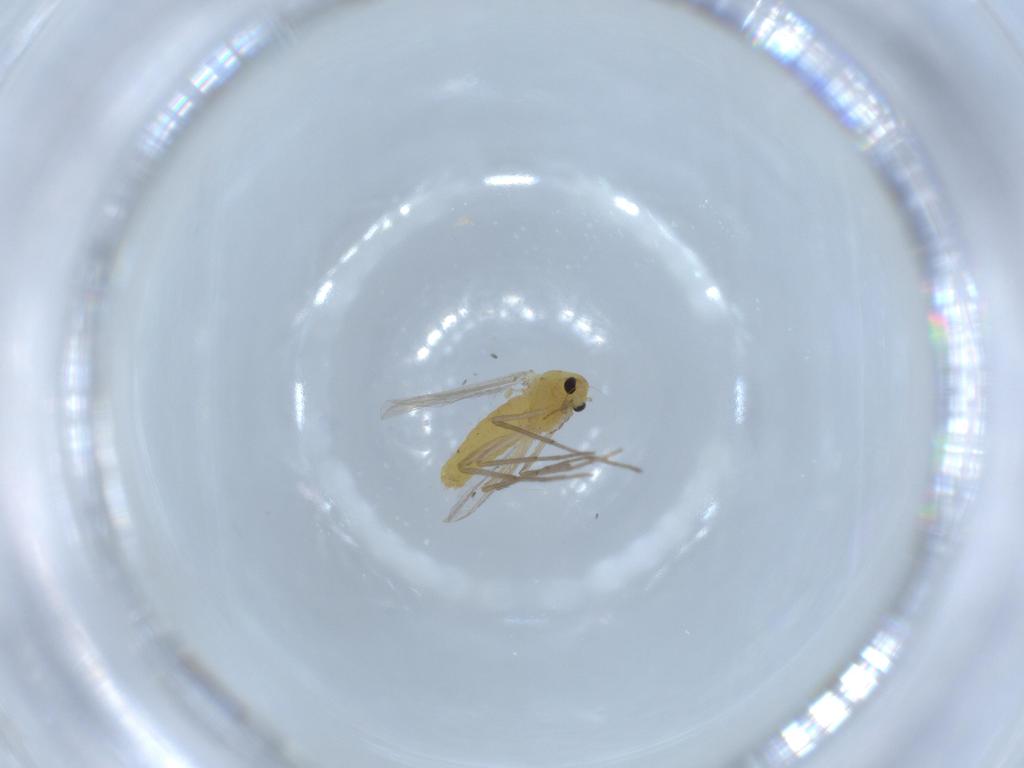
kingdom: Animalia
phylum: Arthropoda
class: Insecta
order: Diptera
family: Chironomidae
